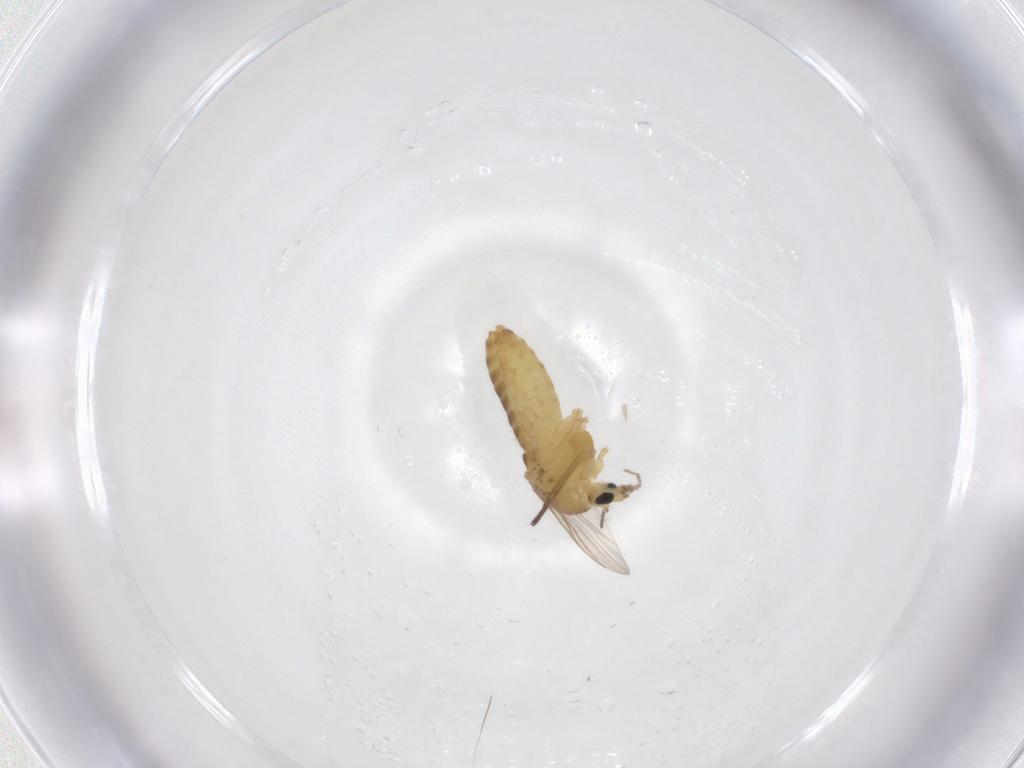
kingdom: Animalia
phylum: Arthropoda
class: Insecta
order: Diptera
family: Chironomidae
